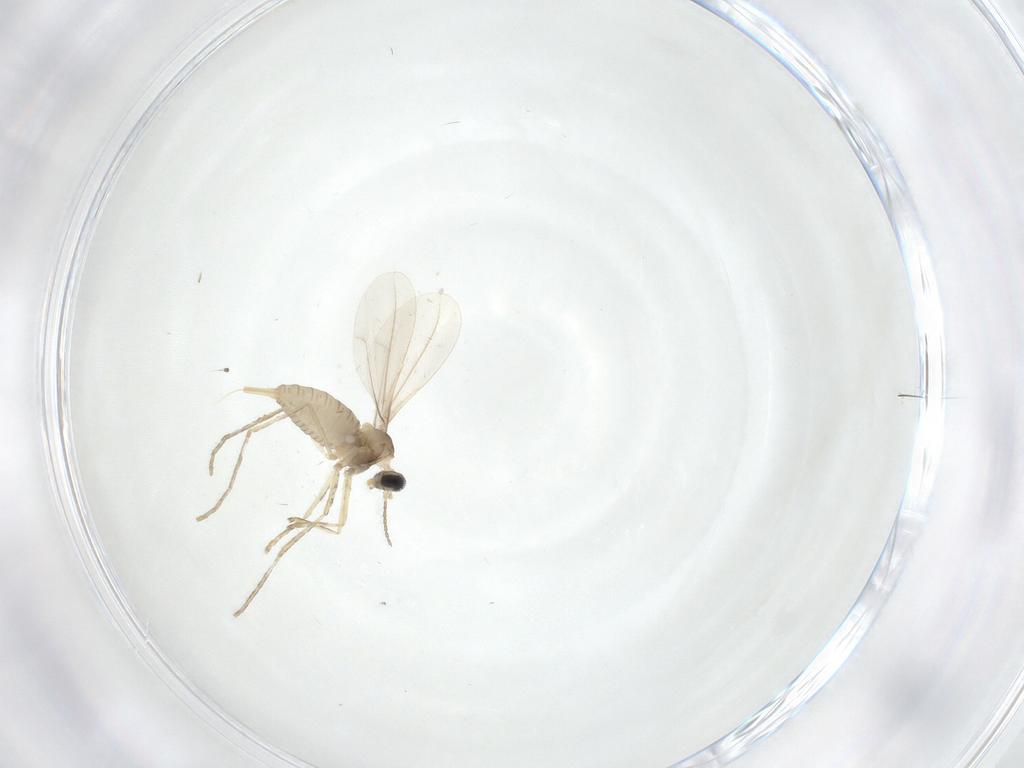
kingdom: Animalia
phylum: Arthropoda
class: Insecta
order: Diptera
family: Cecidomyiidae
